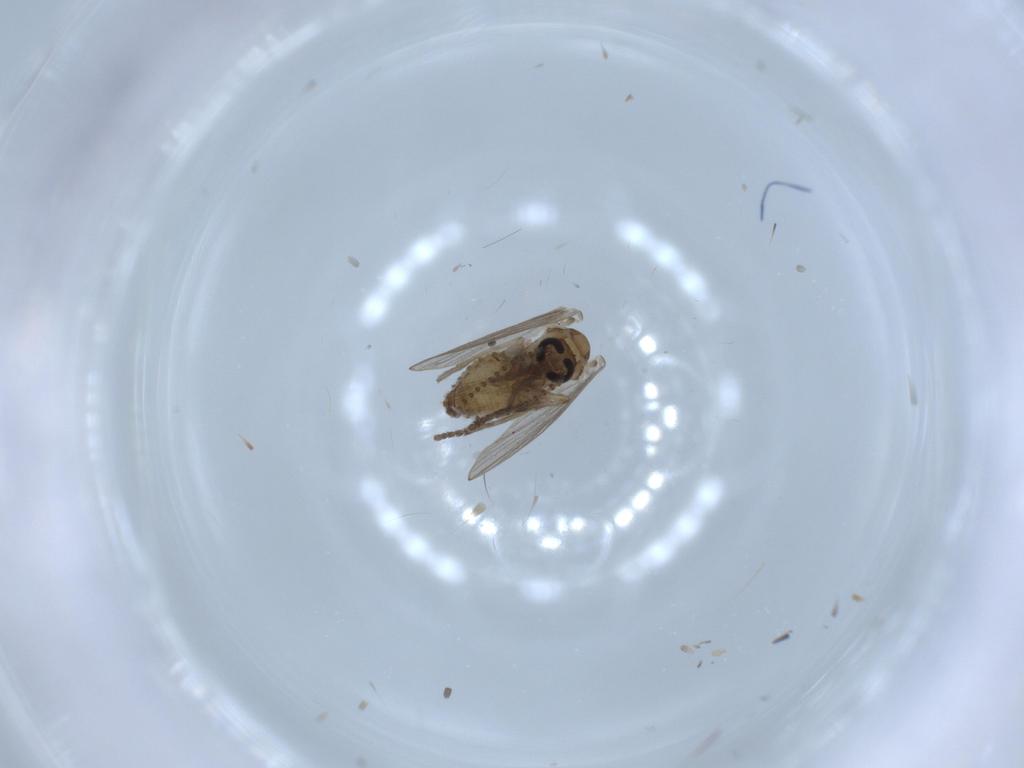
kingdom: Animalia
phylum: Arthropoda
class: Insecta
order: Diptera
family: Psychodidae
